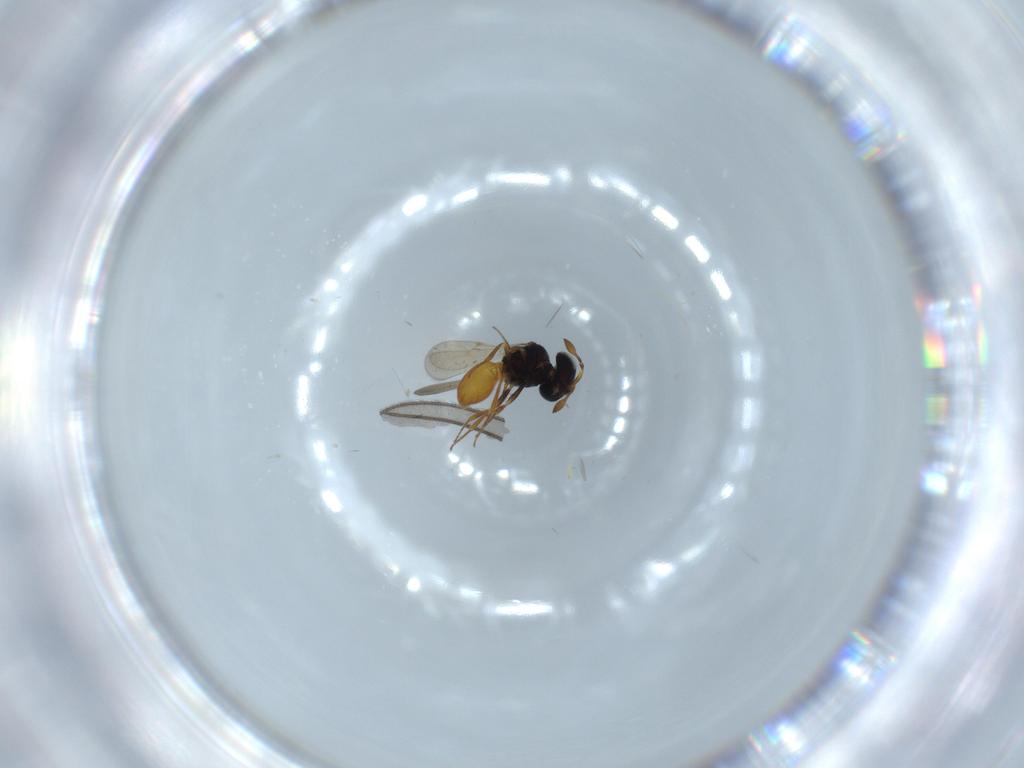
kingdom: Animalia
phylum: Arthropoda
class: Insecta
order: Hymenoptera
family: Scelionidae
